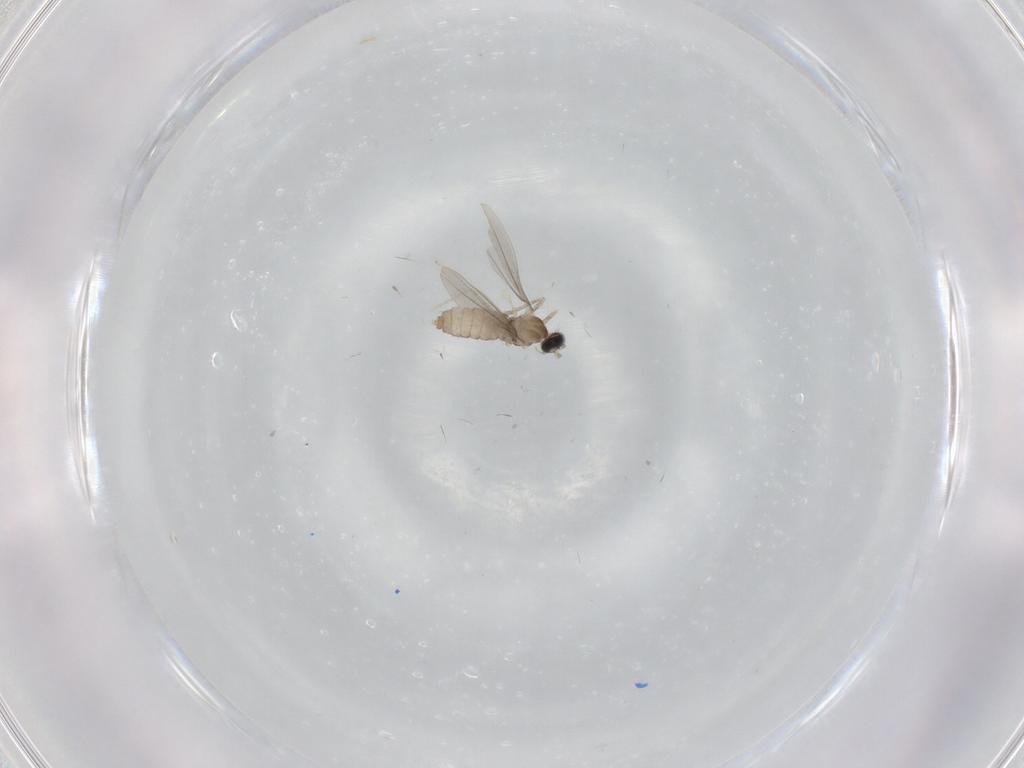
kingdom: Animalia
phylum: Arthropoda
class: Insecta
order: Diptera
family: Cecidomyiidae
